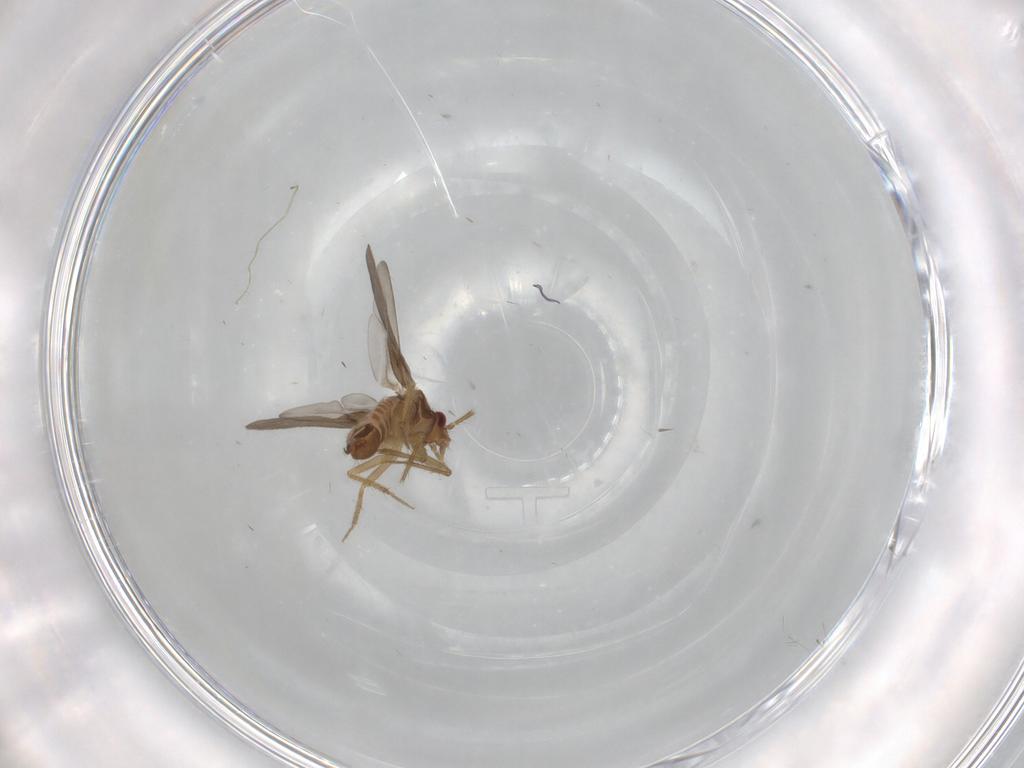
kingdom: Animalia
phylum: Arthropoda
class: Insecta
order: Hemiptera
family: Ceratocombidae
